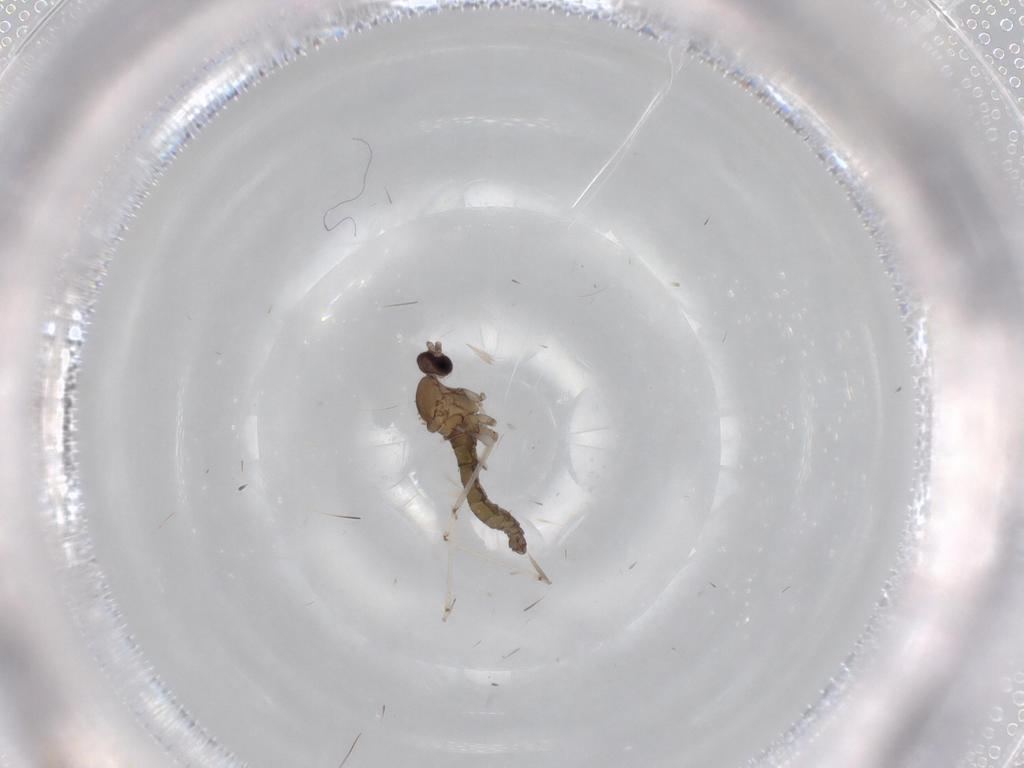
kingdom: Animalia
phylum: Arthropoda
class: Insecta
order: Diptera
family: Cecidomyiidae
